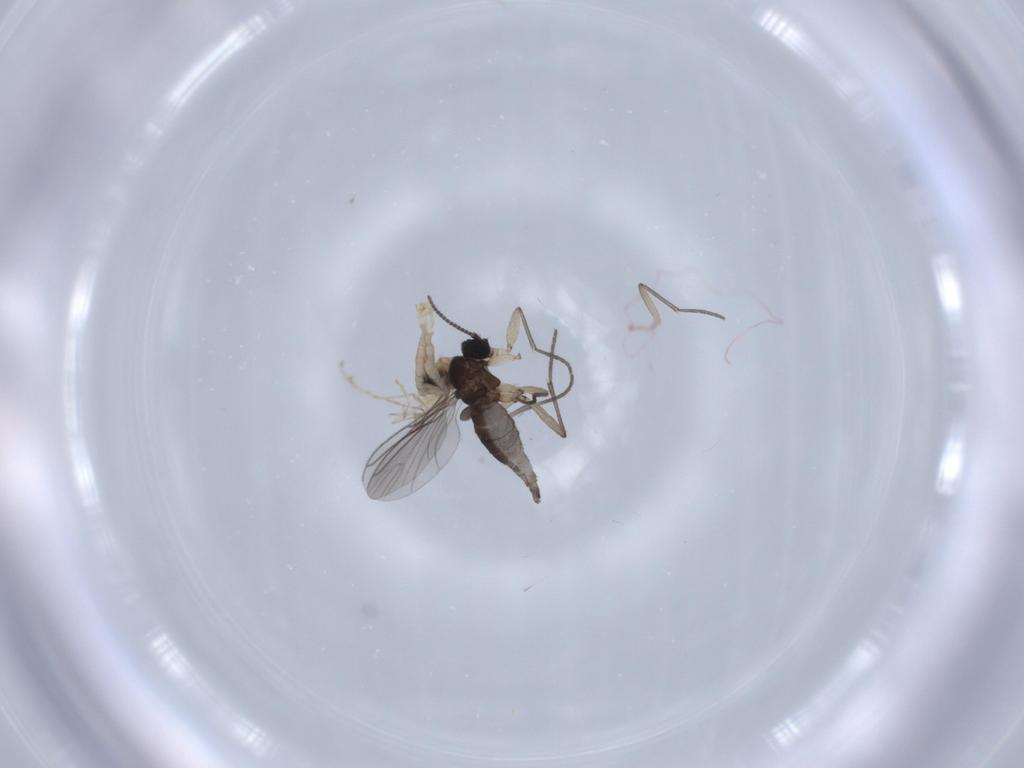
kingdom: Animalia
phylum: Arthropoda
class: Insecta
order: Diptera
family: Sciaridae
